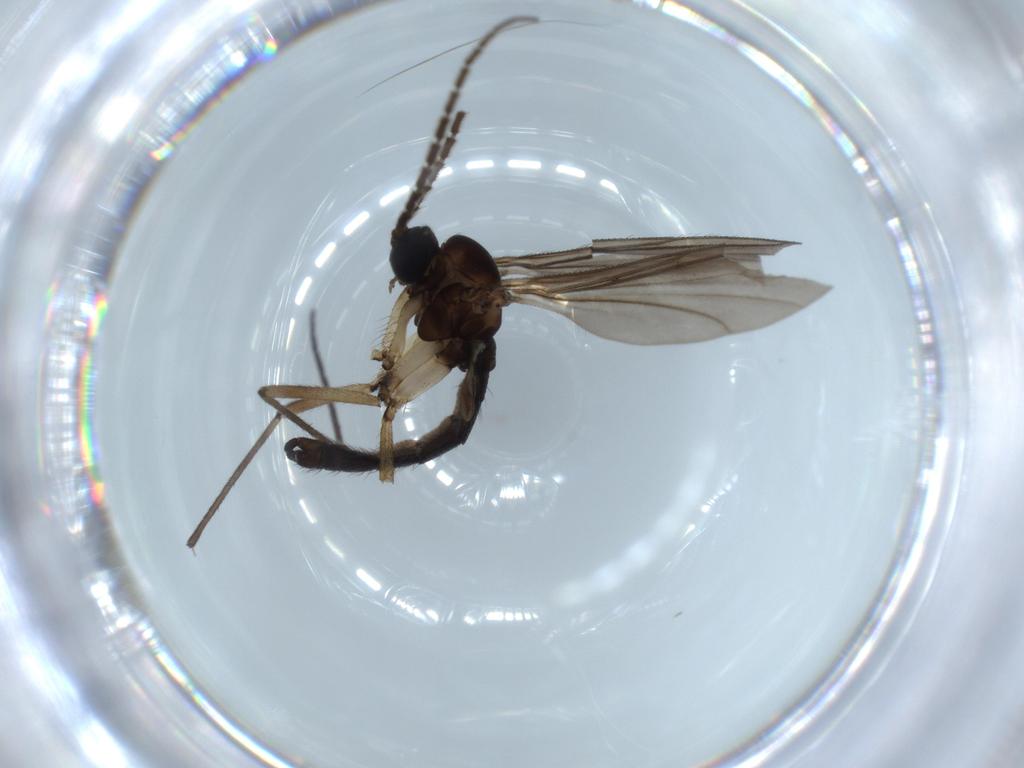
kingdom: Animalia
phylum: Arthropoda
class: Insecta
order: Diptera
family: Sciaridae
